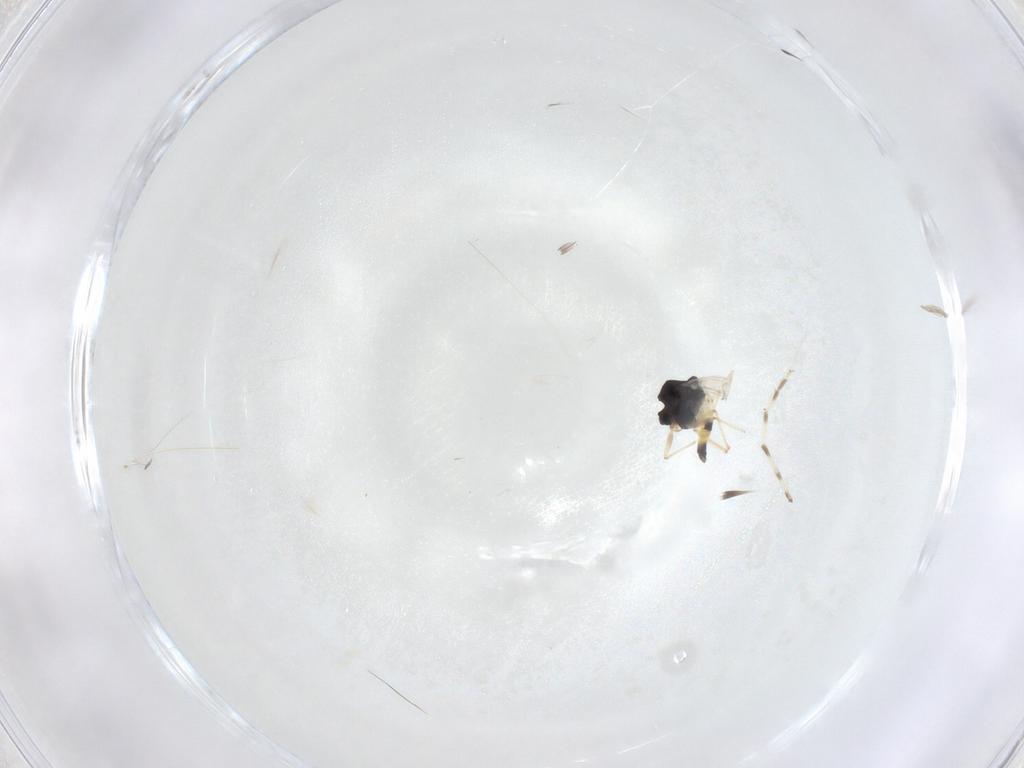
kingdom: Animalia
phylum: Arthropoda
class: Insecta
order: Diptera
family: Chironomidae
